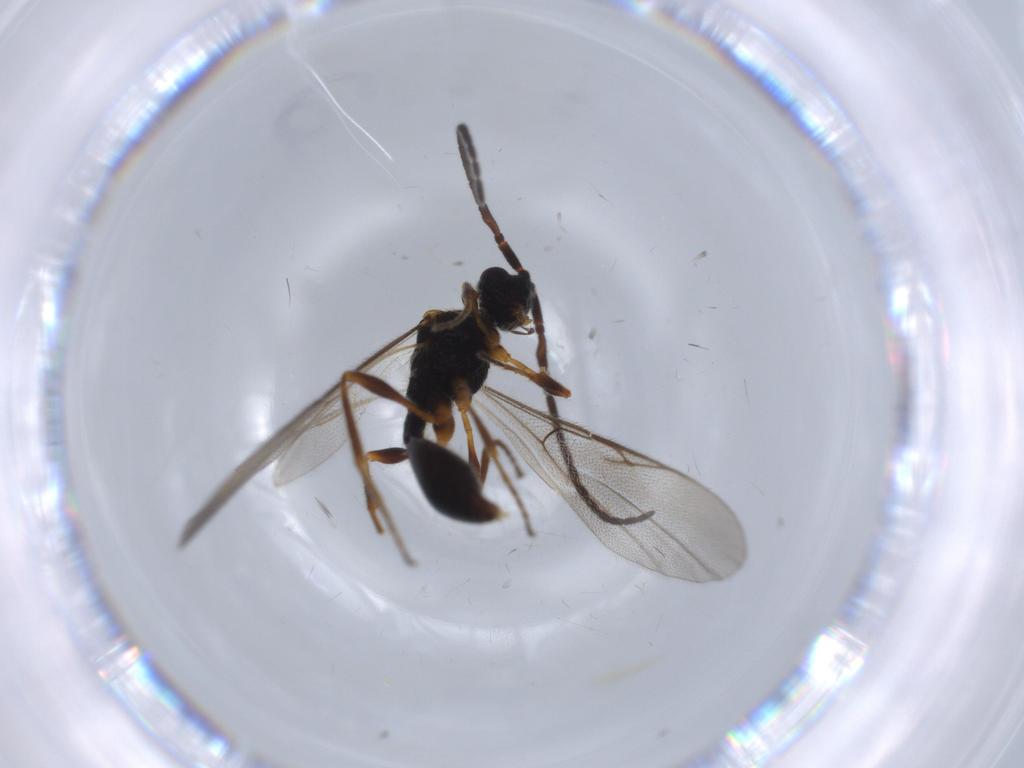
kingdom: Animalia
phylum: Arthropoda
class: Insecta
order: Hymenoptera
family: Diapriidae
